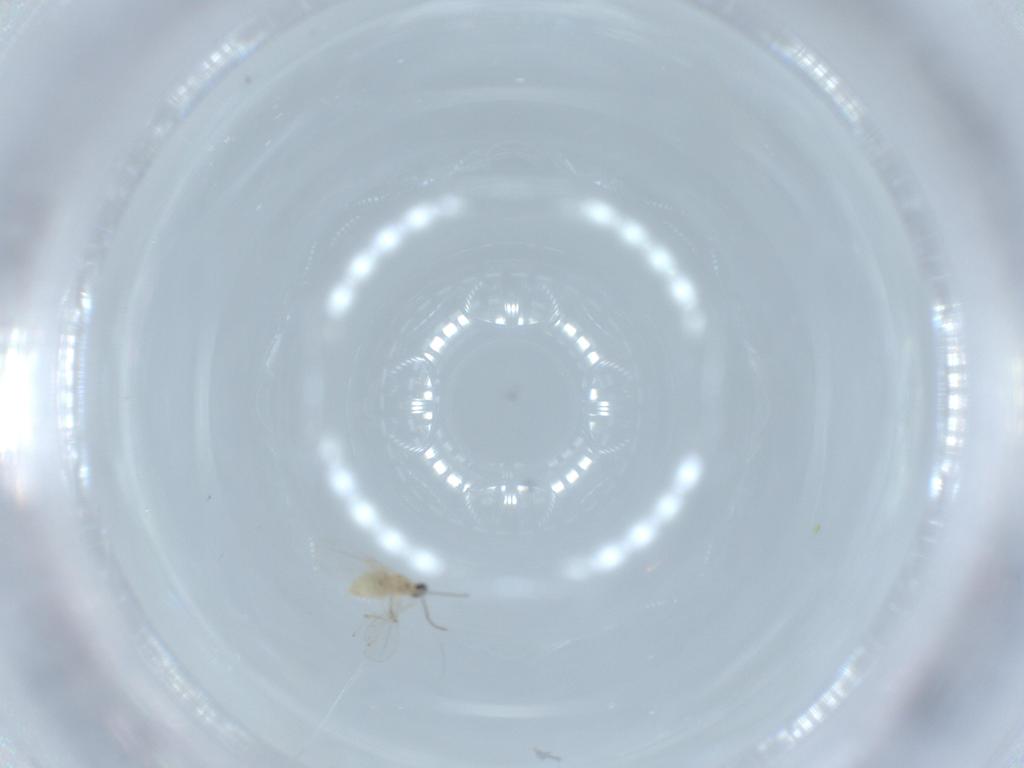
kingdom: Animalia
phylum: Arthropoda
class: Insecta
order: Diptera
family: Cecidomyiidae
